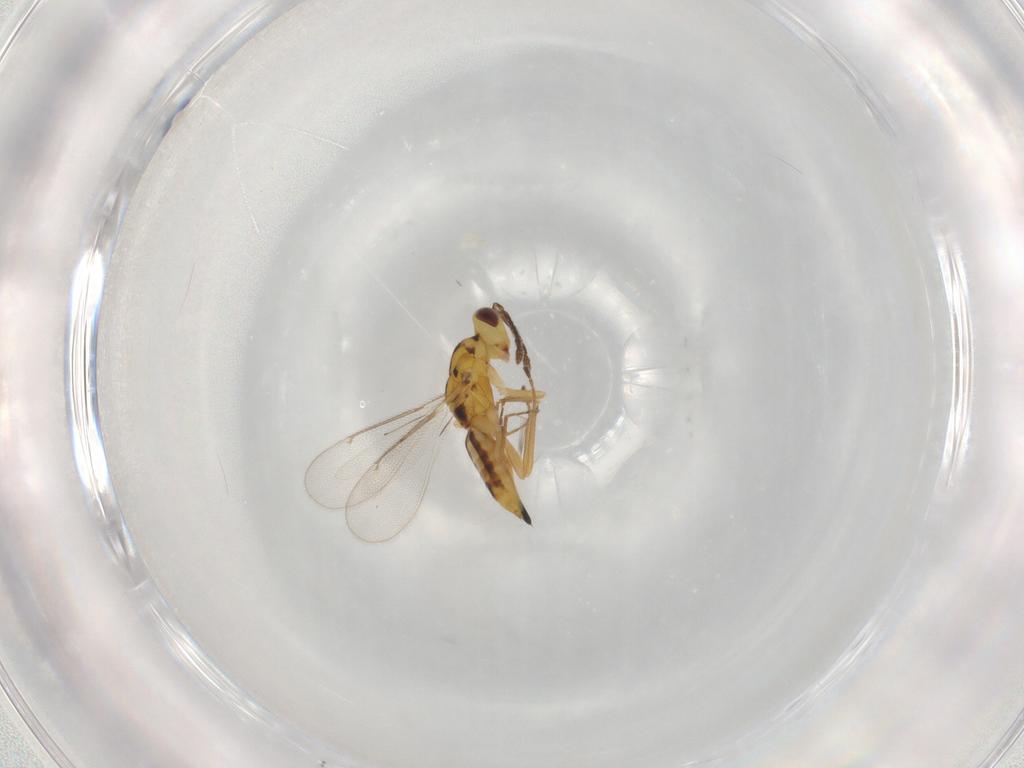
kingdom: Animalia
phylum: Arthropoda
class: Insecta
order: Hymenoptera
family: Eulophidae
